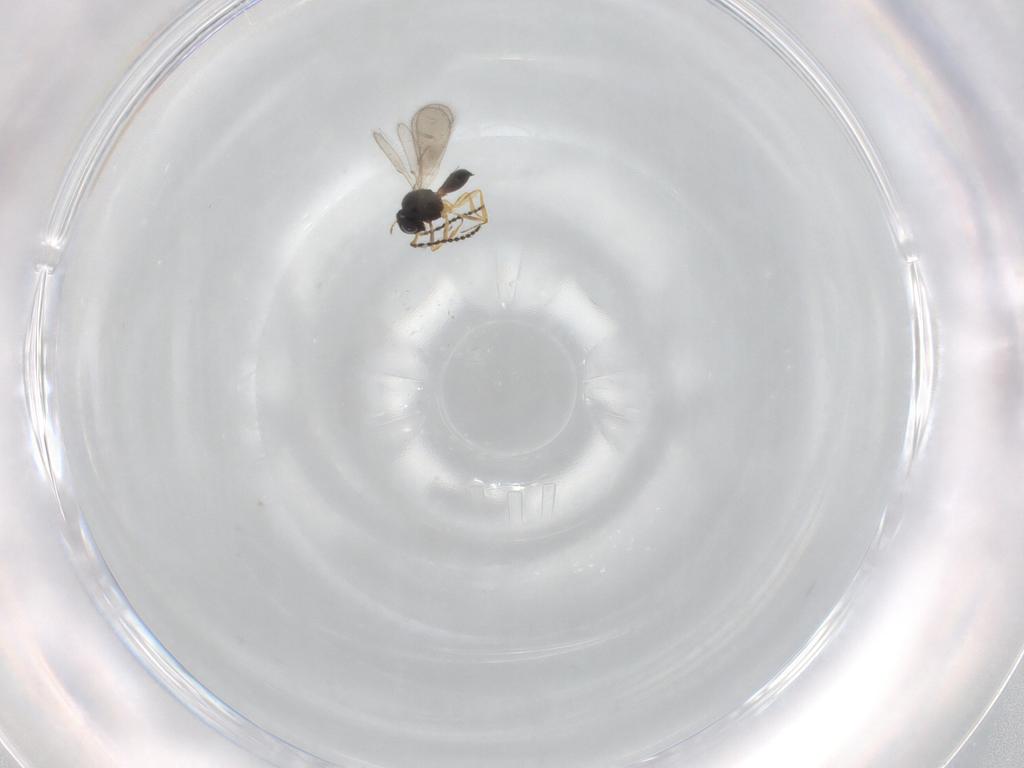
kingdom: Animalia
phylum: Arthropoda
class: Insecta
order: Hymenoptera
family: Scelionidae
